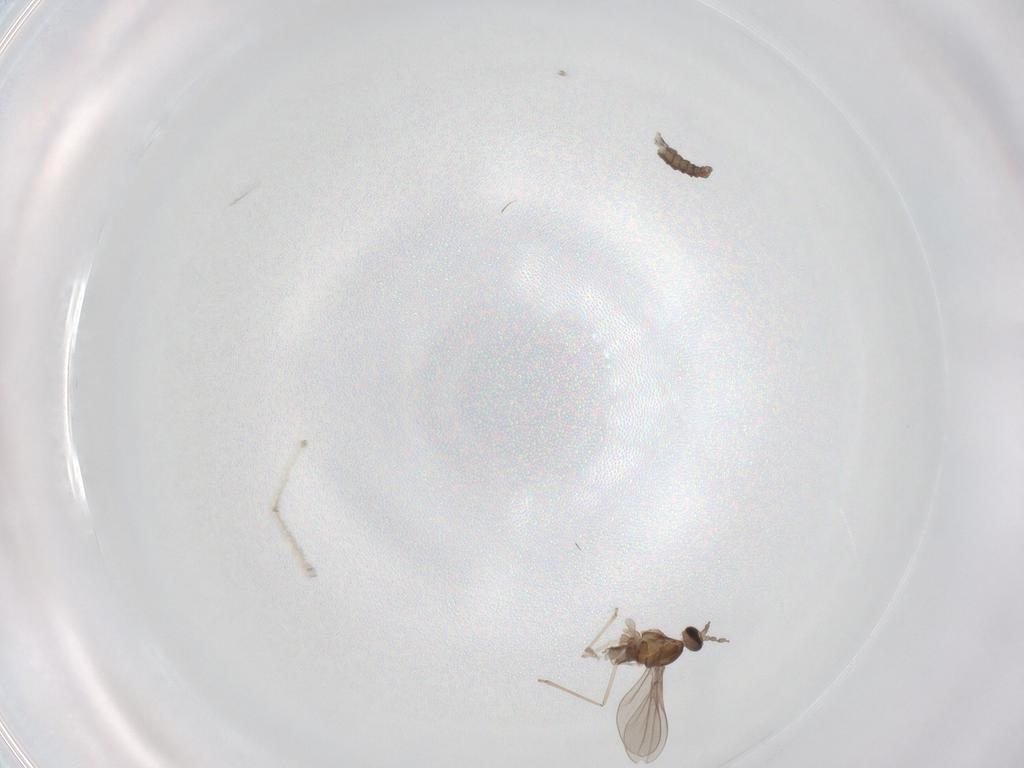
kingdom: Animalia
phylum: Arthropoda
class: Insecta
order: Diptera
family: Cecidomyiidae
